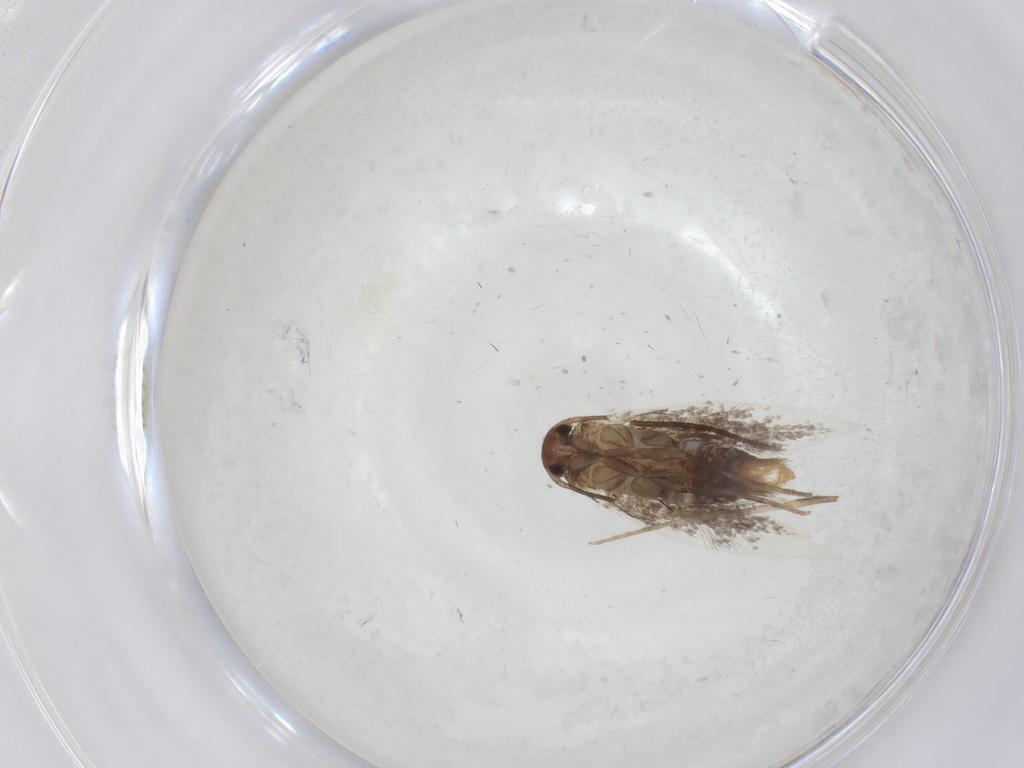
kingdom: Animalia
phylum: Arthropoda
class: Insecta
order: Lepidoptera
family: Elachistidae
